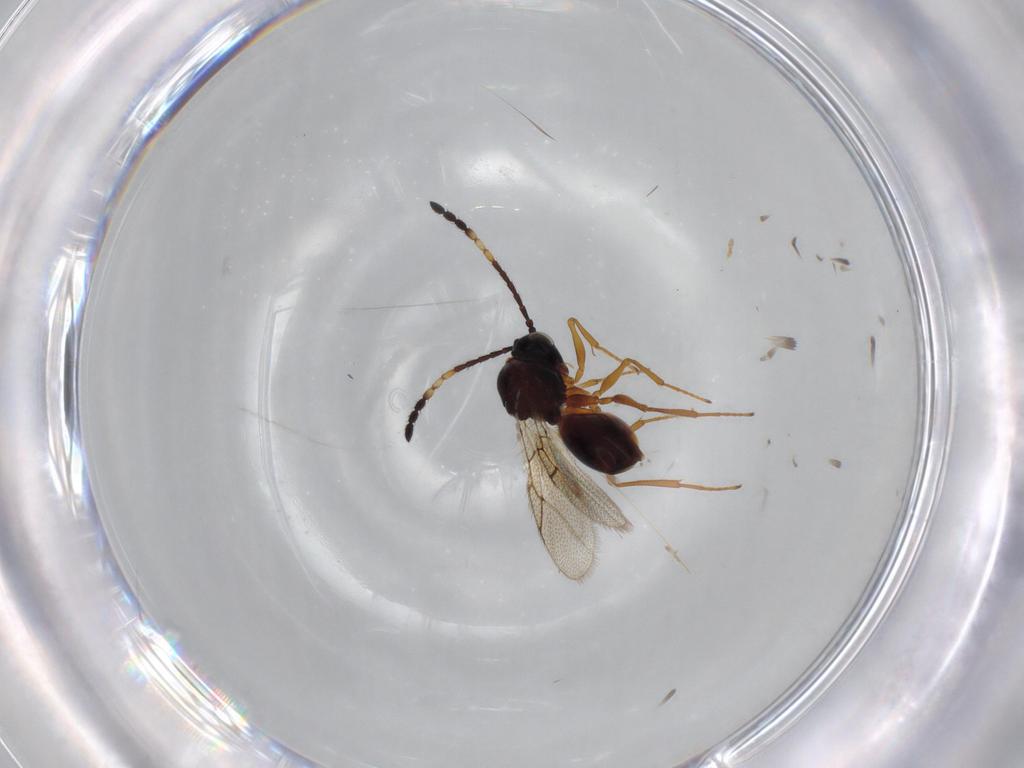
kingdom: Animalia
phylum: Arthropoda
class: Insecta
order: Hymenoptera
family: Figitidae
